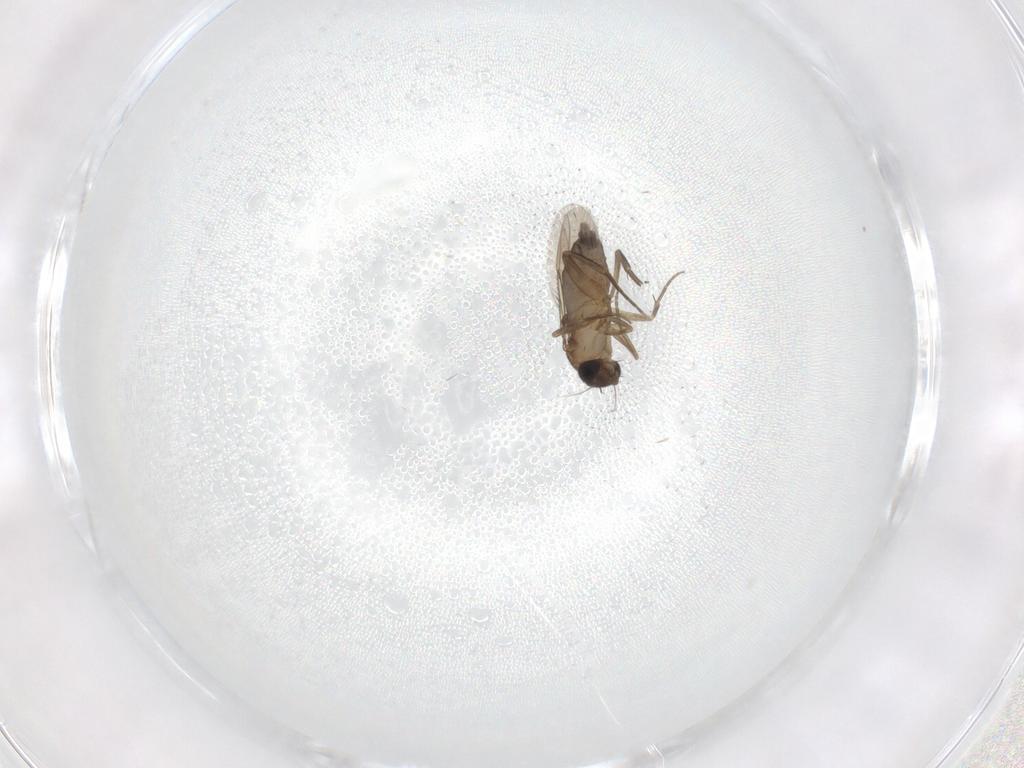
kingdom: Animalia
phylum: Arthropoda
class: Insecta
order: Diptera
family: Phoridae
